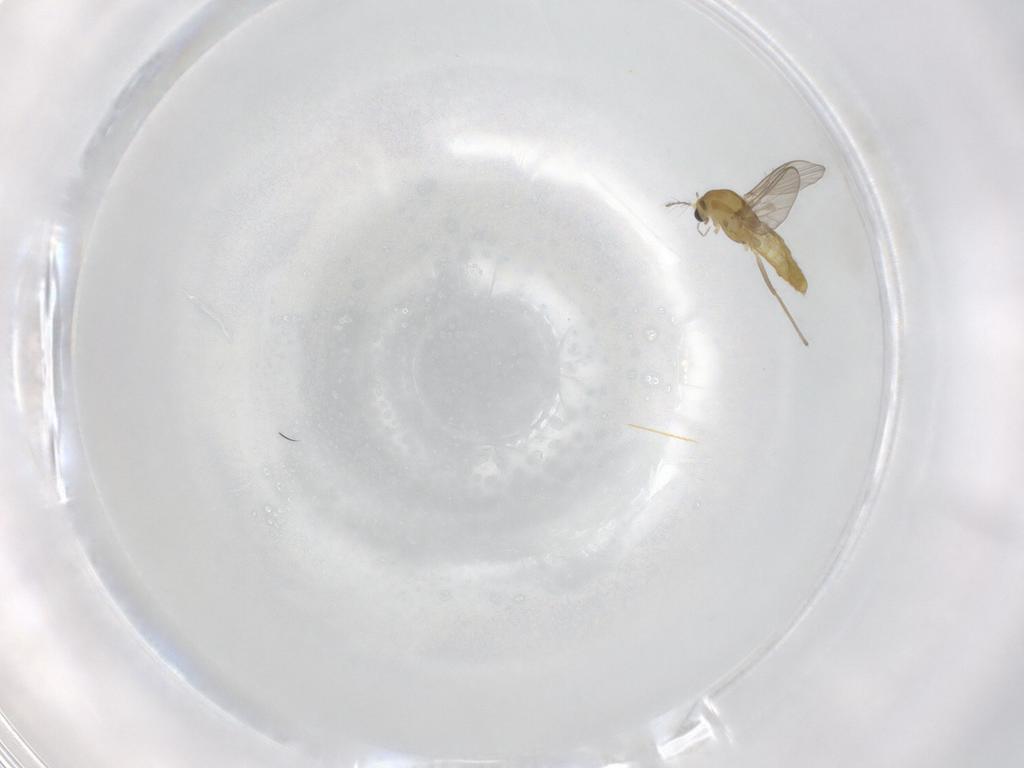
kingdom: Animalia
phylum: Arthropoda
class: Insecta
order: Diptera
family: Chironomidae
